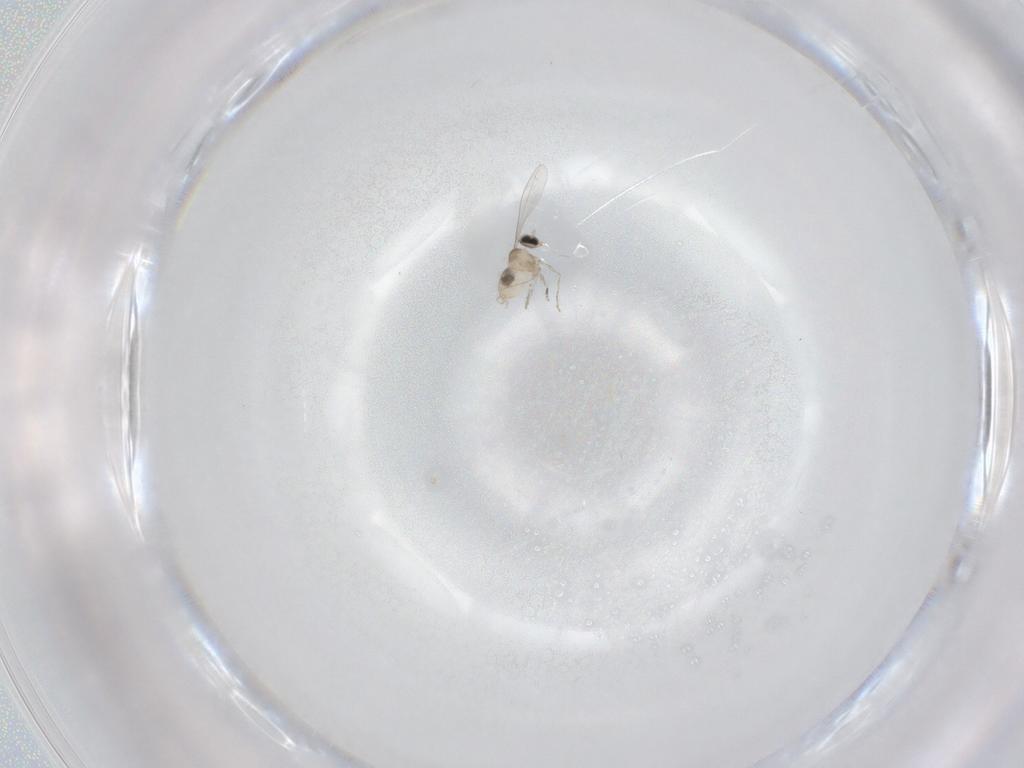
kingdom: Animalia
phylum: Arthropoda
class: Insecta
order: Diptera
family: Cecidomyiidae
